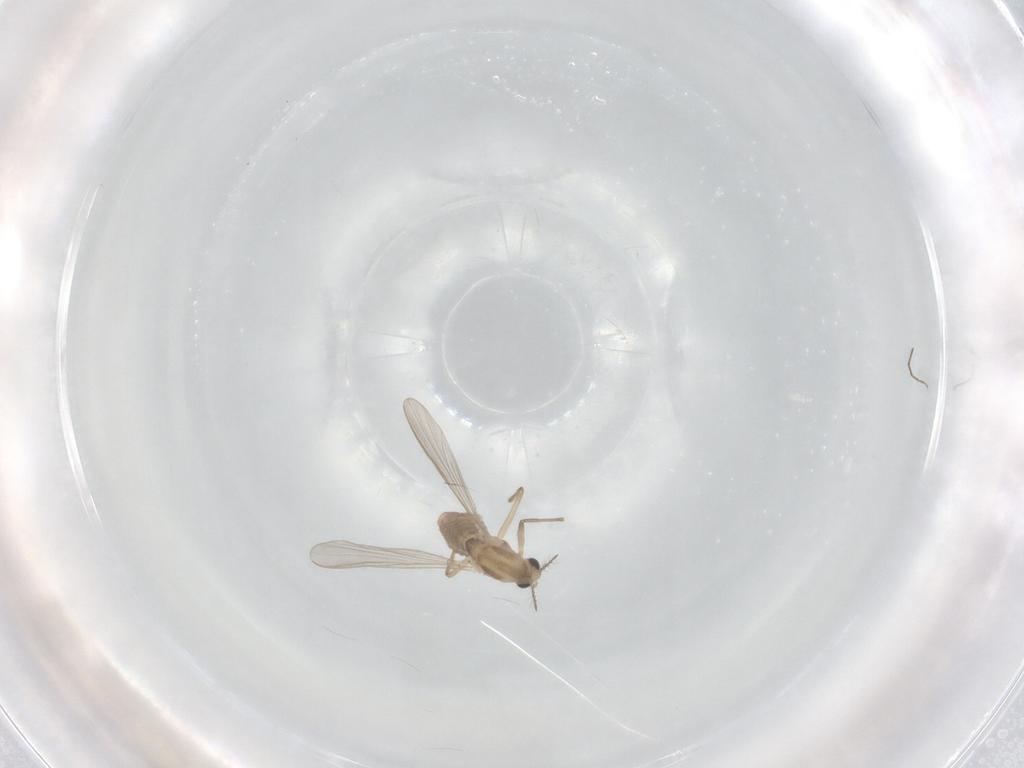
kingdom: Animalia
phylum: Arthropoda
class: Insecta
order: Diptera
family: Chironomidae
